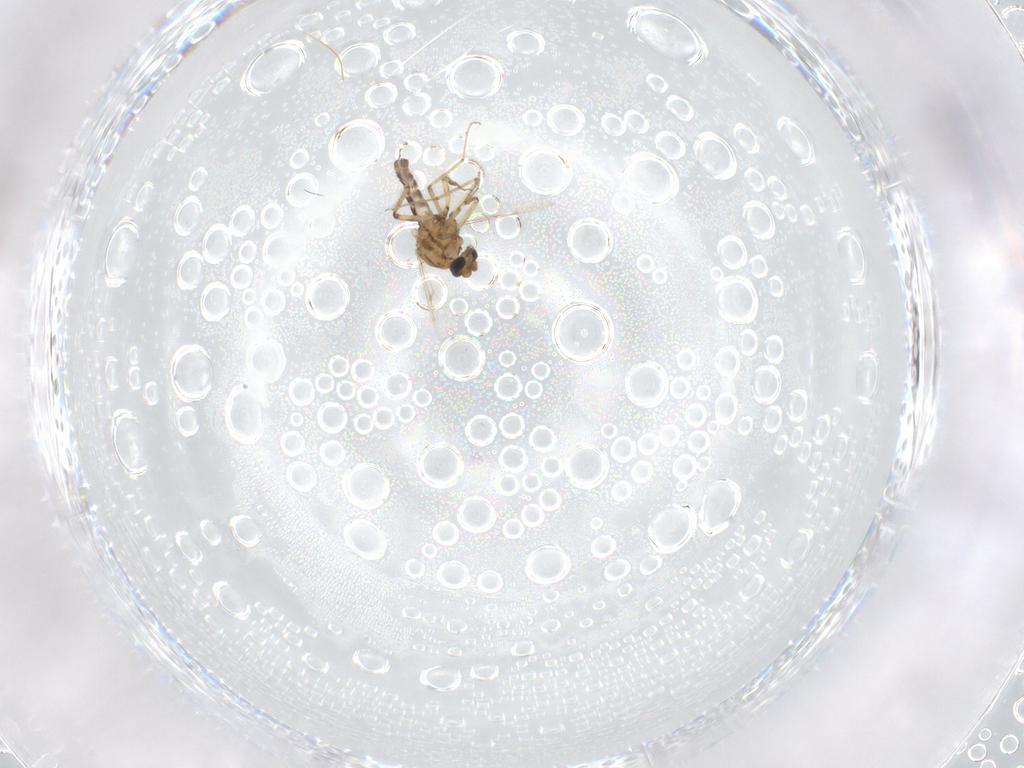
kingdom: Animalia
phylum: Arthropoda
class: Insecta
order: Diptera
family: Ceratopogonidae
